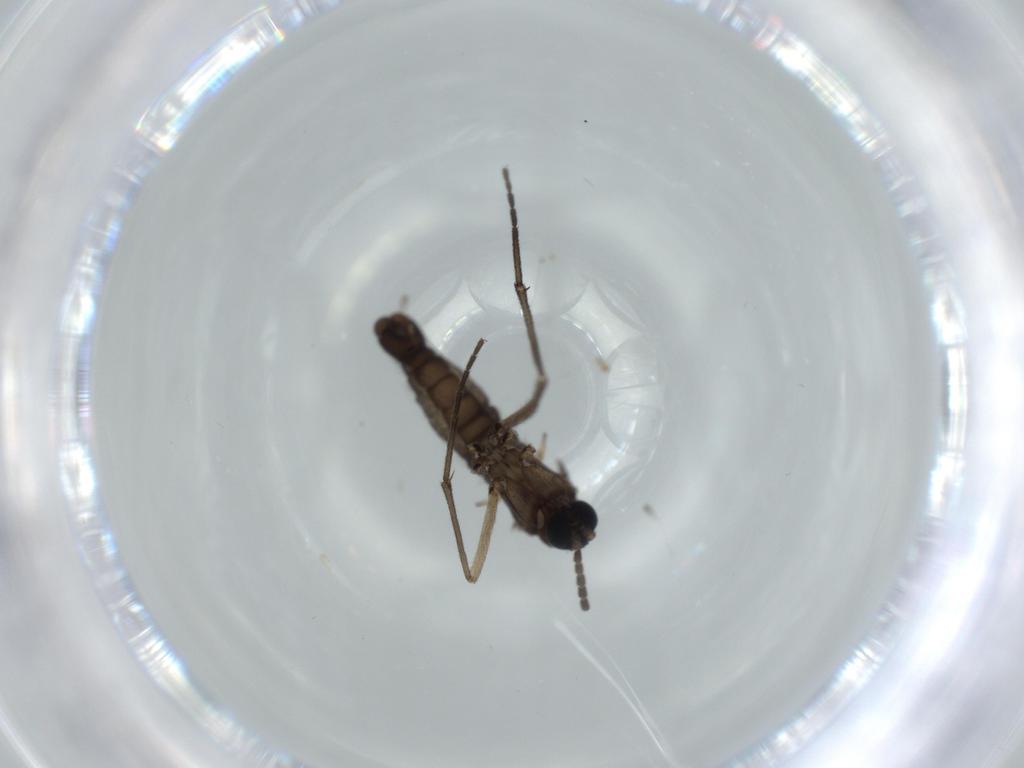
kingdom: Animalia
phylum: Arthropoda
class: Insecta
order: Diptera
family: Sciaridae
